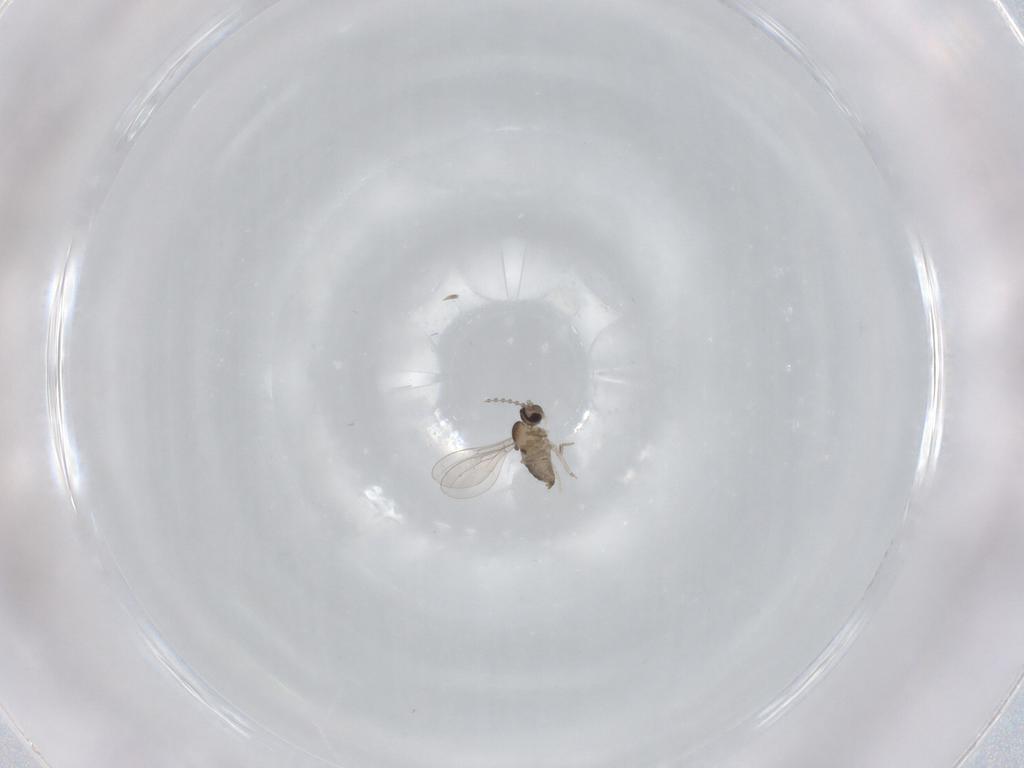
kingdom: Animalia
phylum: Arthropoda
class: Insecta
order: Diptera
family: Cecidomyiidae
